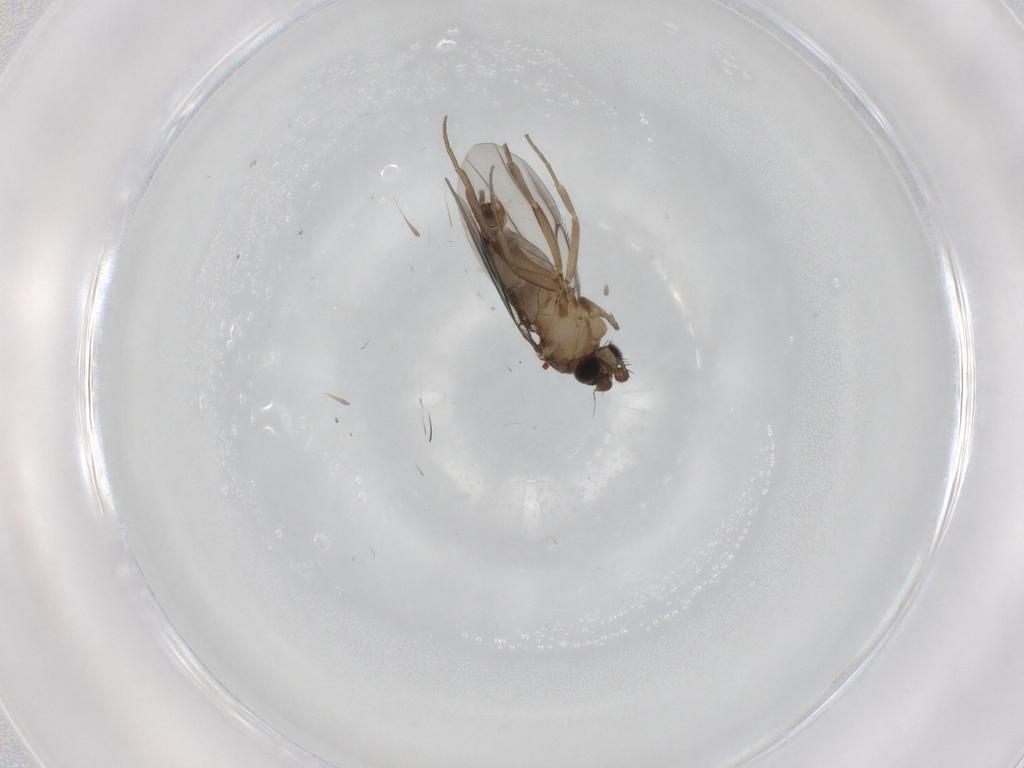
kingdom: Animalia
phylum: Arthropoda
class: Insecta
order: Diptera
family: Phoridae
